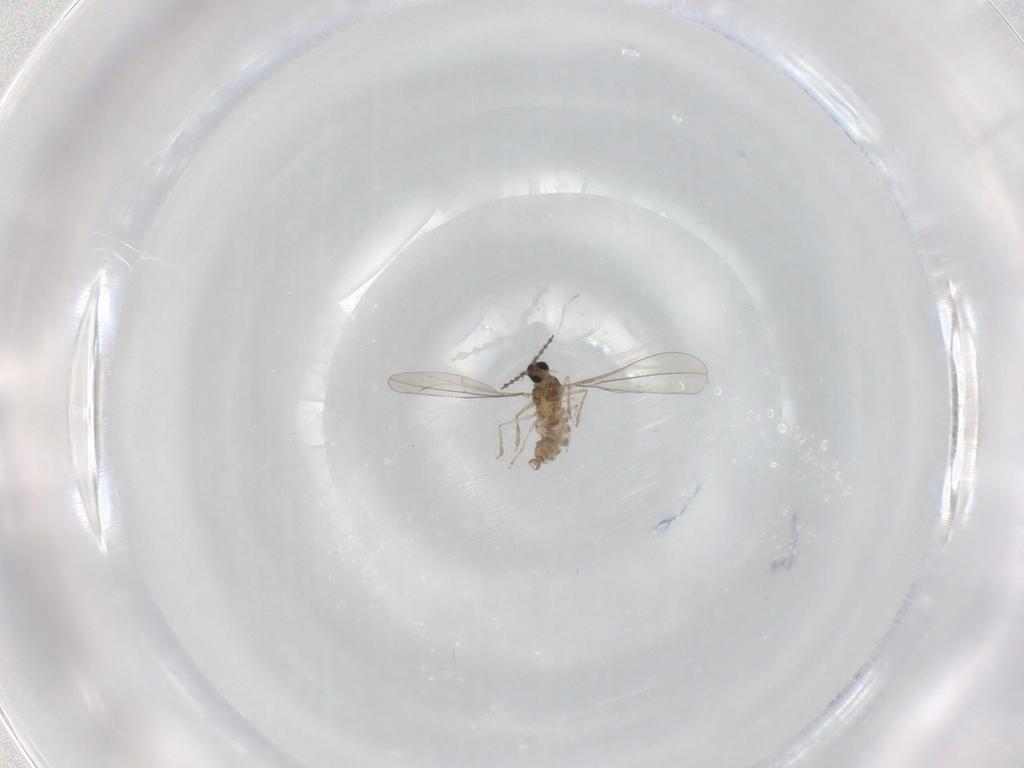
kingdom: Animalia
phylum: Arthropoda
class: Insecta
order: Diptera
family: Cecidomyiidae
